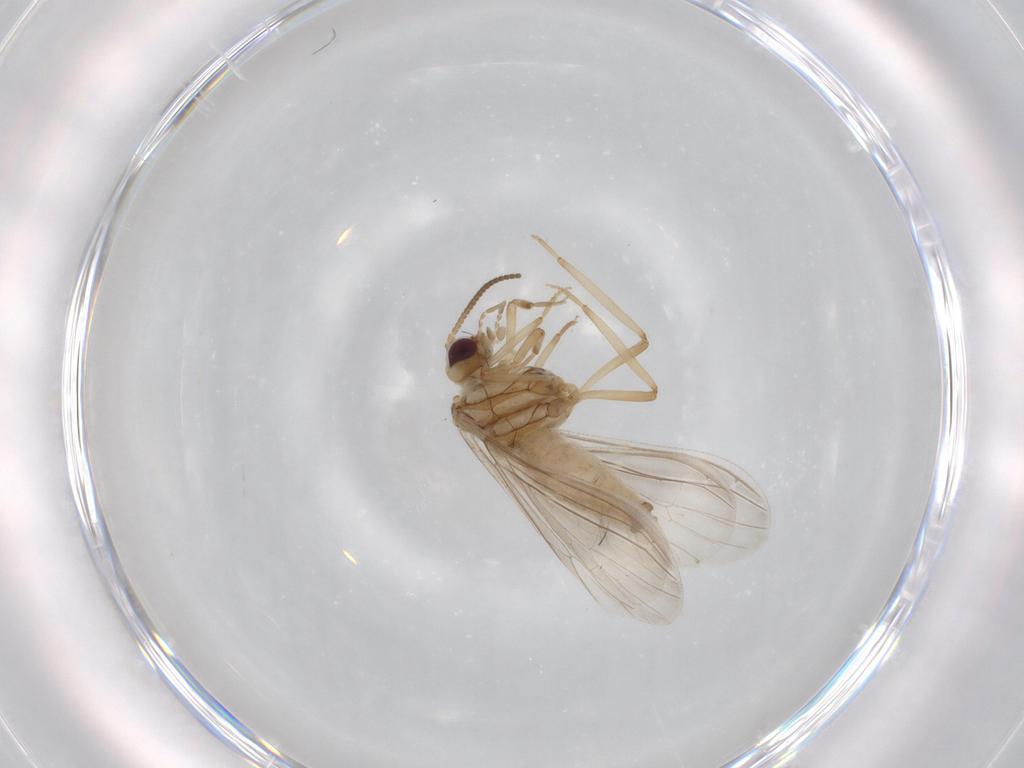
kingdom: Animalia
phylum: Arthropoda
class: Insecta
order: Neuroptera
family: Coniopterygidae
